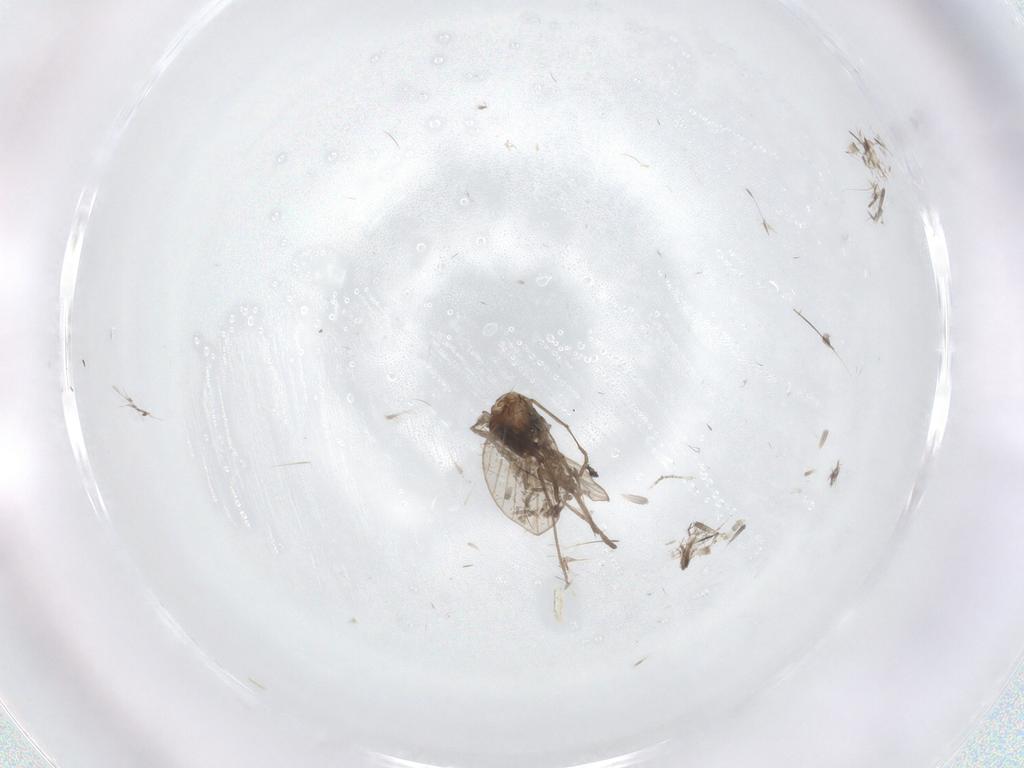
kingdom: Animalia
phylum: Arthropoda
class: Insecta
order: Diptera
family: Psychodidae
